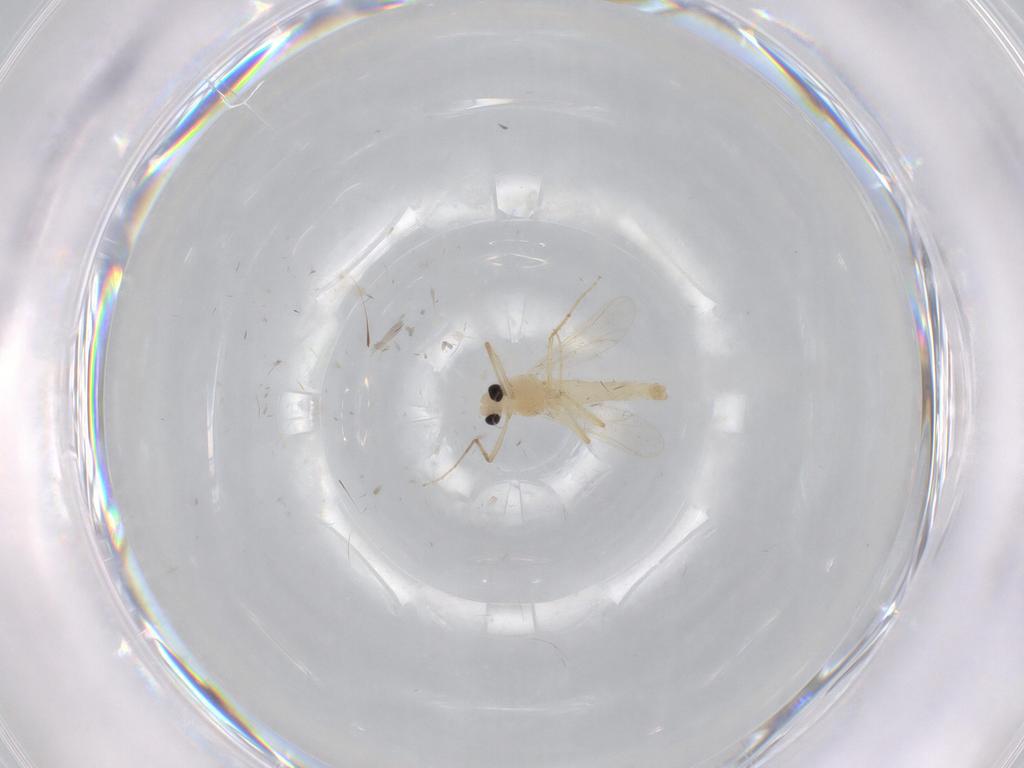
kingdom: Animalia
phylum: Arthropoda
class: Insecta
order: Diptera
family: Chironomidae
